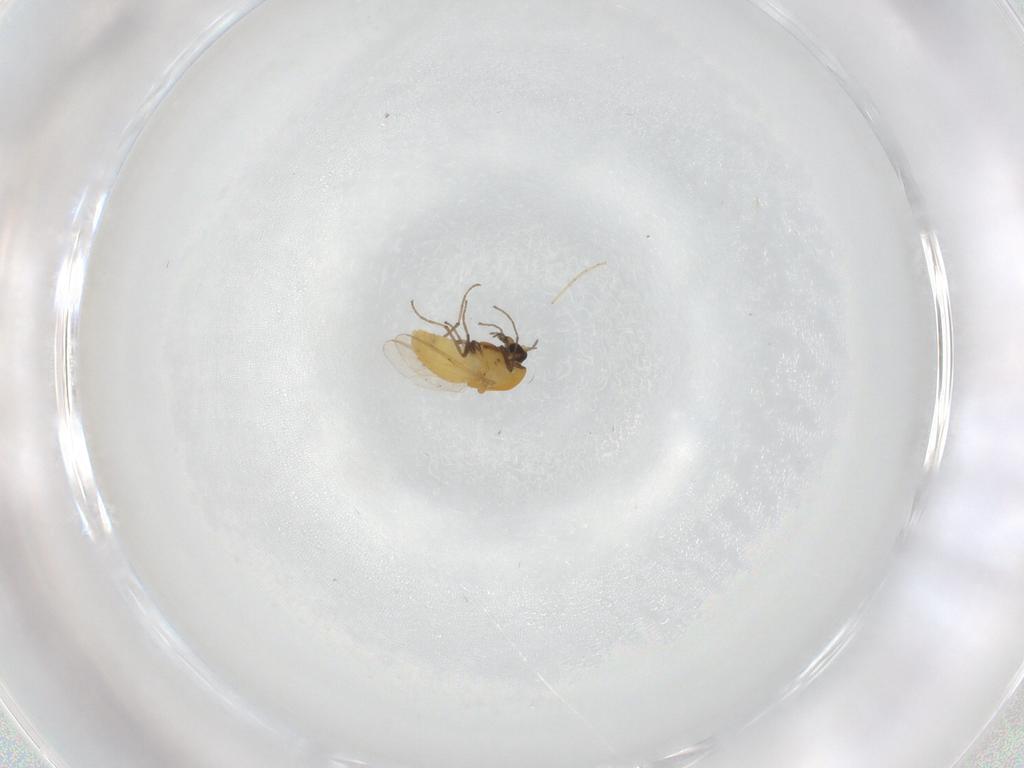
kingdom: Animalia
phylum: Arthropoda
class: Insecta
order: Diptera
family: Chironomidae
